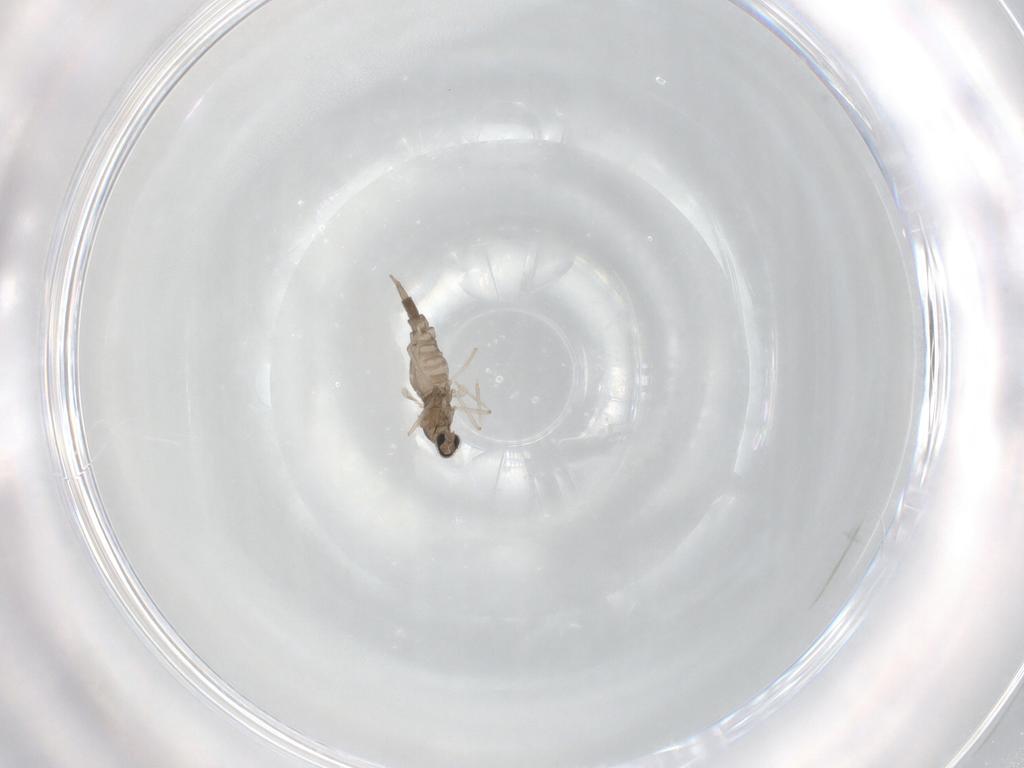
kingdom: Animalia
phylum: Arthropoda
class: Insecta
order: Diptera
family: Cecidomyiidae
